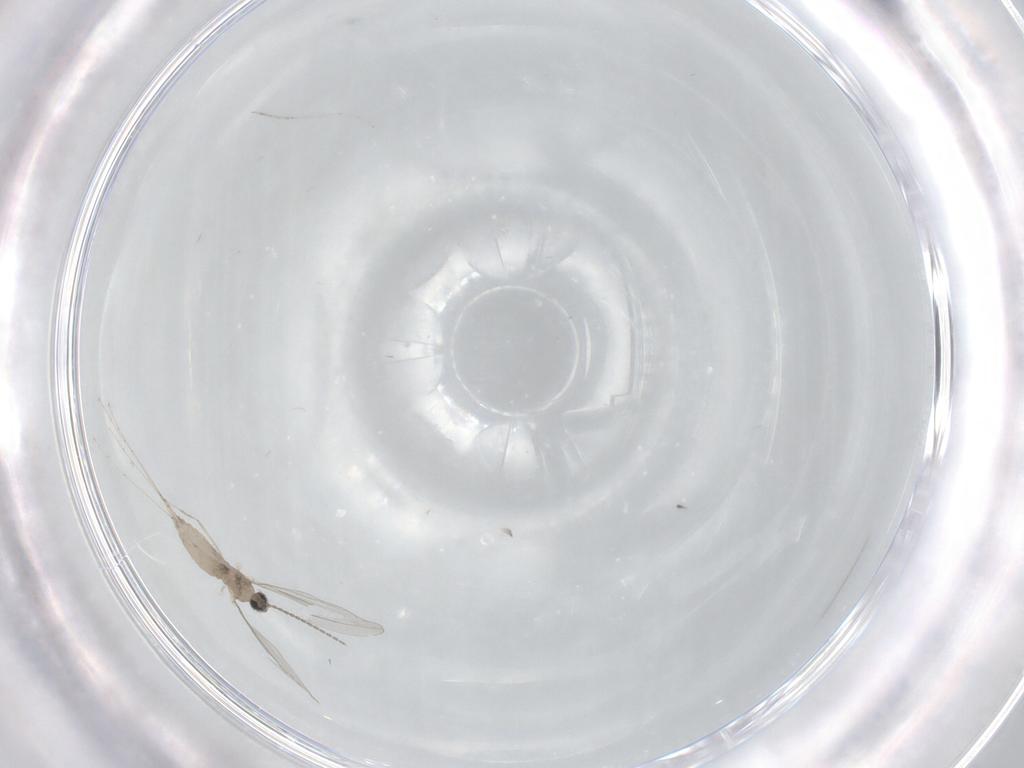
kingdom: Animalia
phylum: Arthropoda
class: Insecta
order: Diptera
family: Cecidomyiidae
